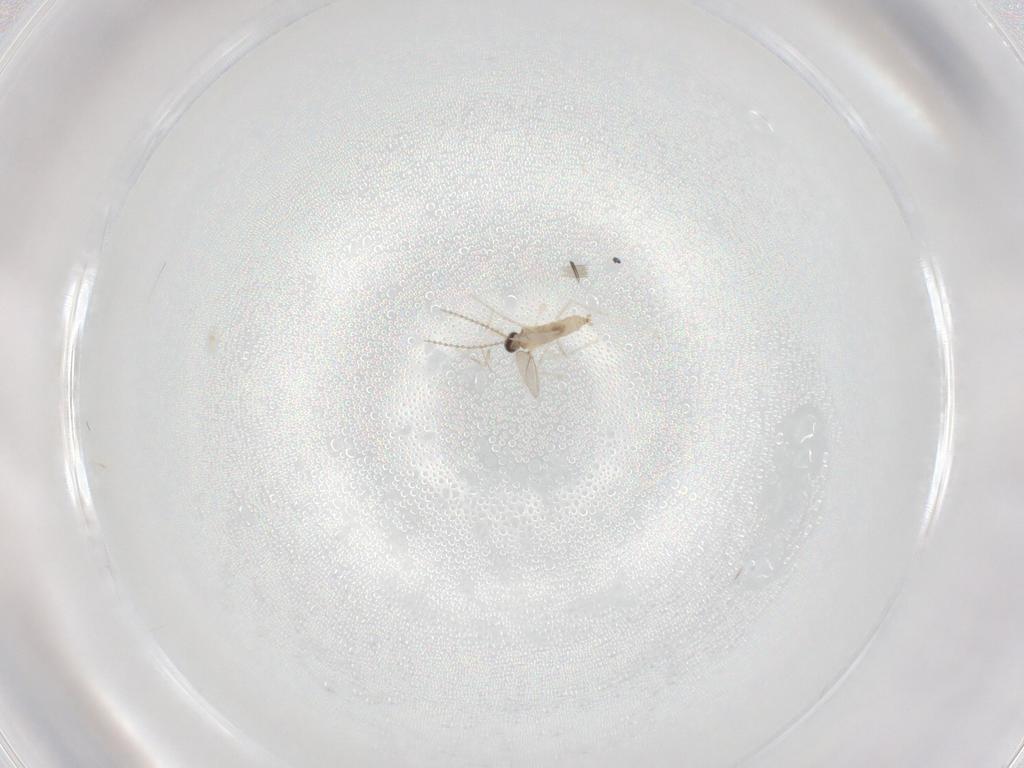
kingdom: Animalia
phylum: Arthropoda
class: Insecta
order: Diptera
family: Cecidomyiidae
